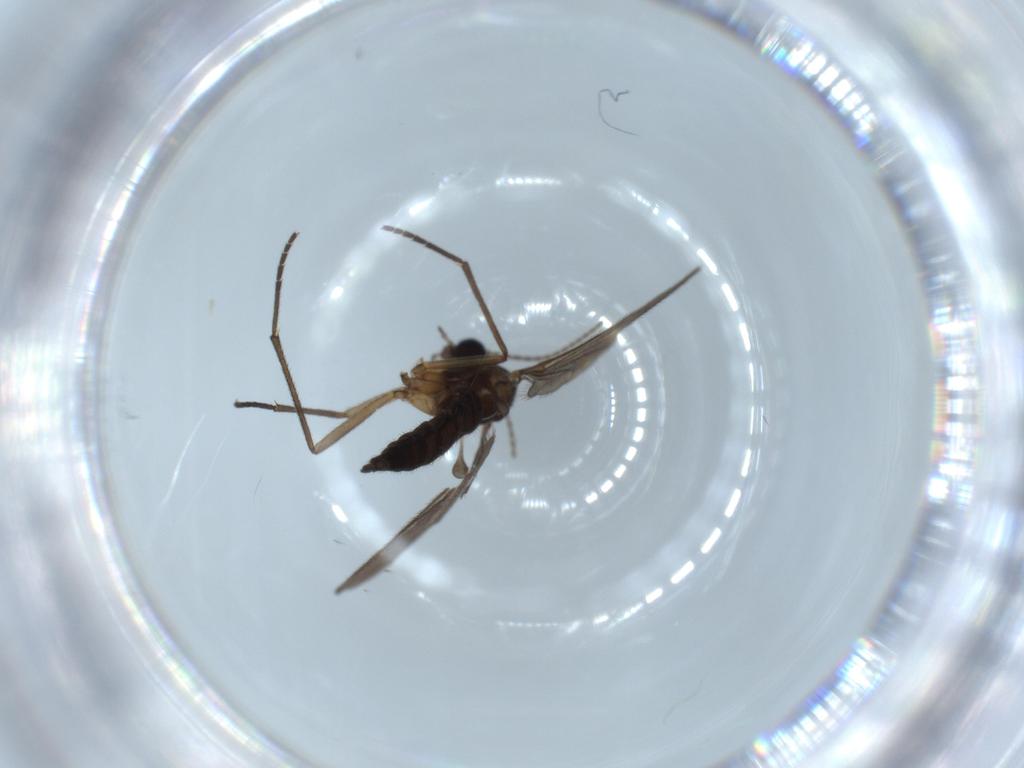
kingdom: Animalia
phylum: Arthropoda
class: Insecta
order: Diptera
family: Sciaridae
